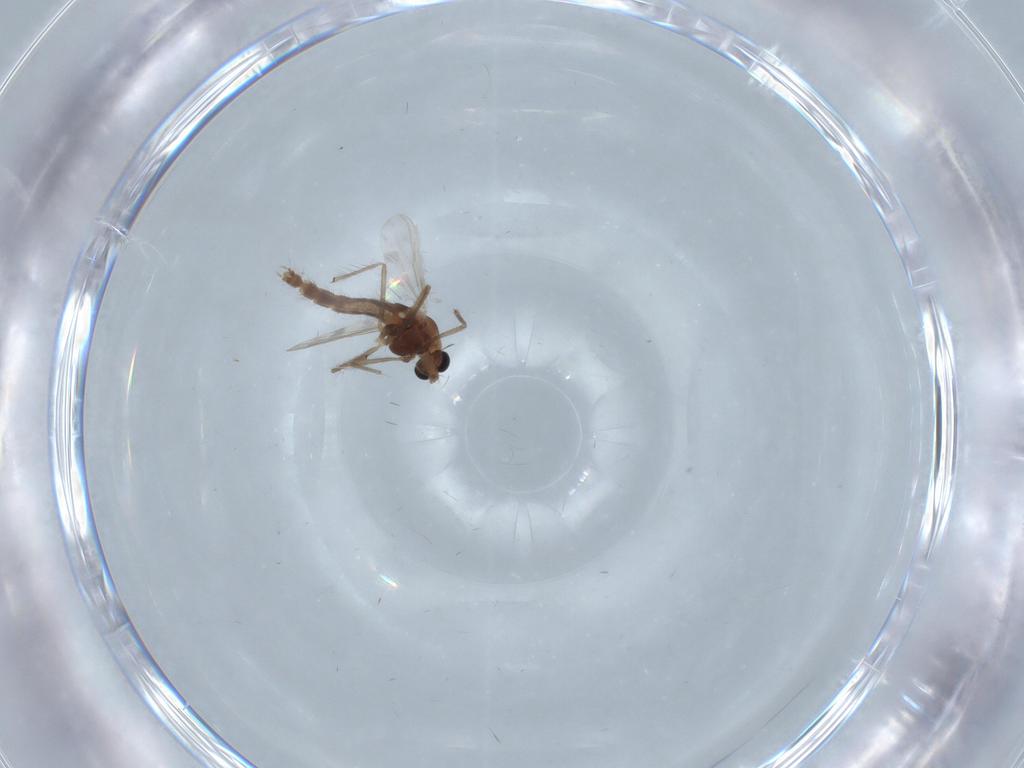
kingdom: Animalia
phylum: Arthropoda
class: Insecta
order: Diptera
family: Chironomidae
